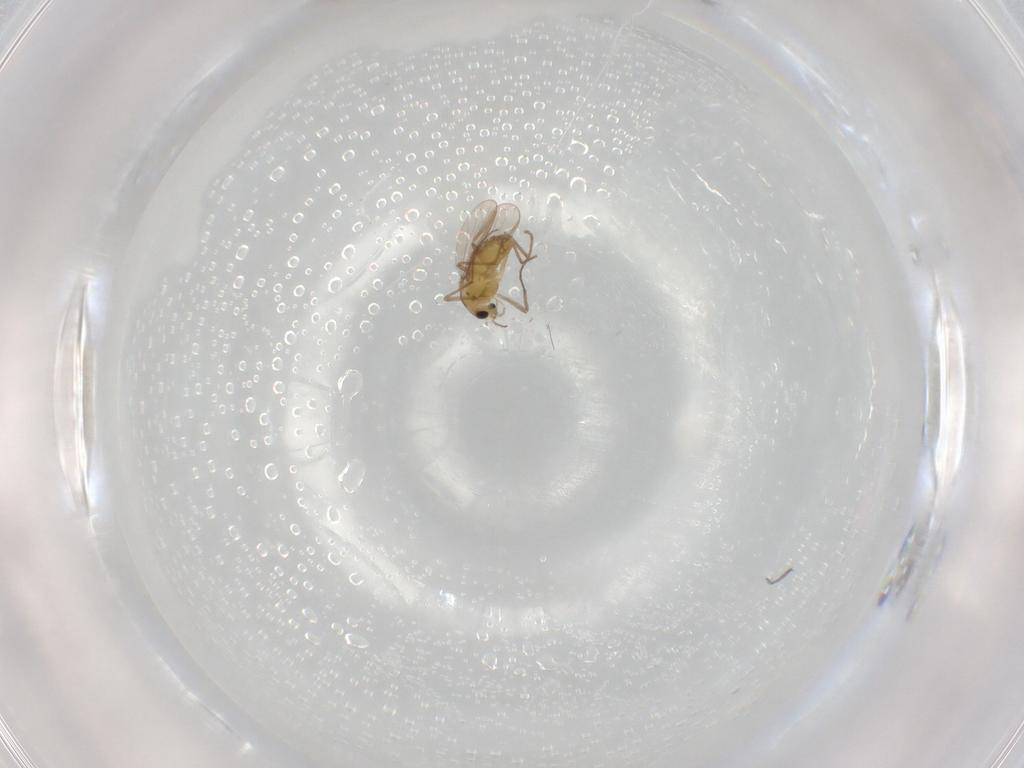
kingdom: Animalia
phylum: Arthropoda
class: Insecta
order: Diptera
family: Chironomidae
